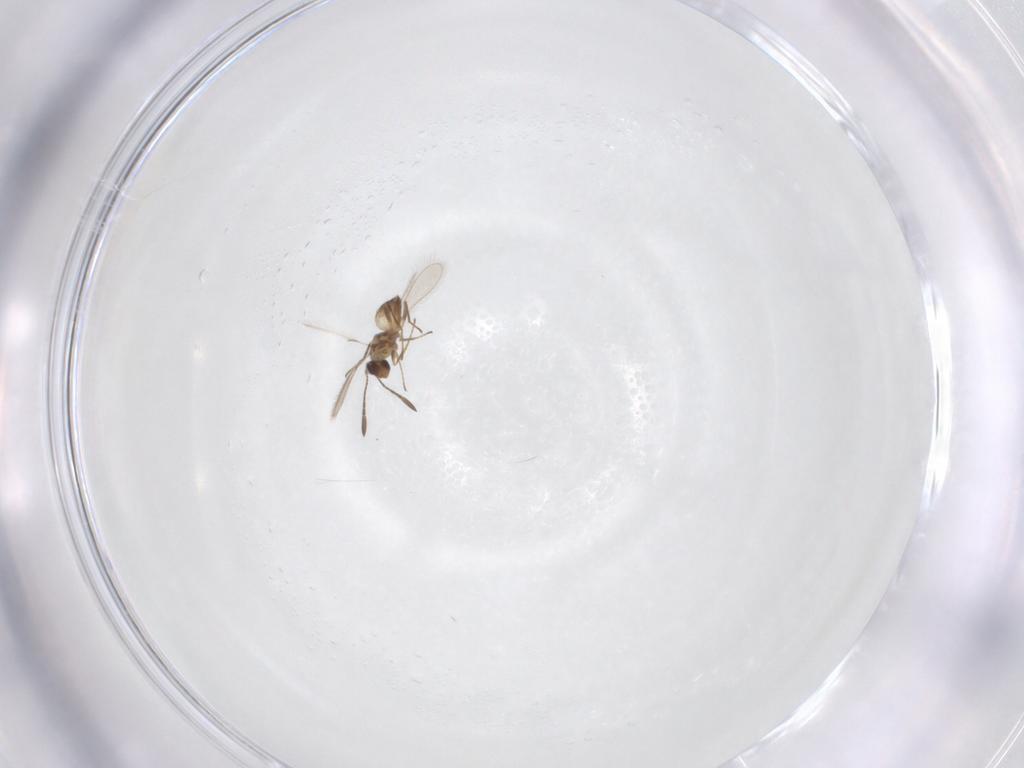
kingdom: Animalia
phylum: Arthropoda
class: Insecta
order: Hymenoptera
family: Mymaridae
